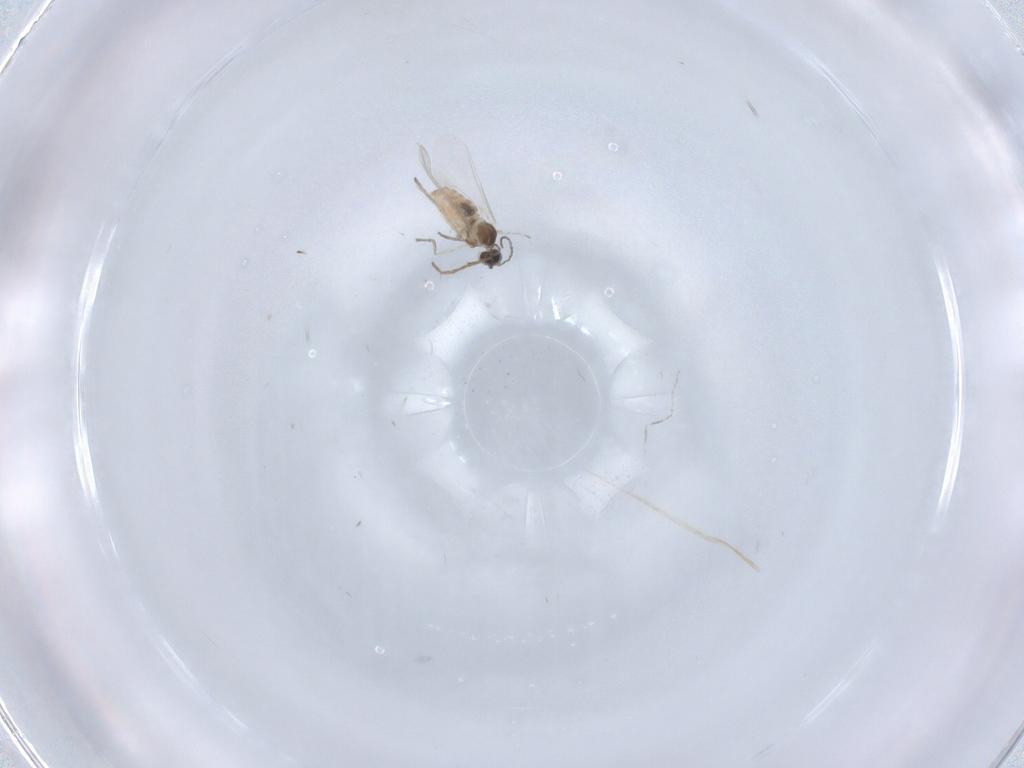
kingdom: Animalia
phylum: Arthropoda
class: Insecta
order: Diptera
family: Cecidomyiidae
